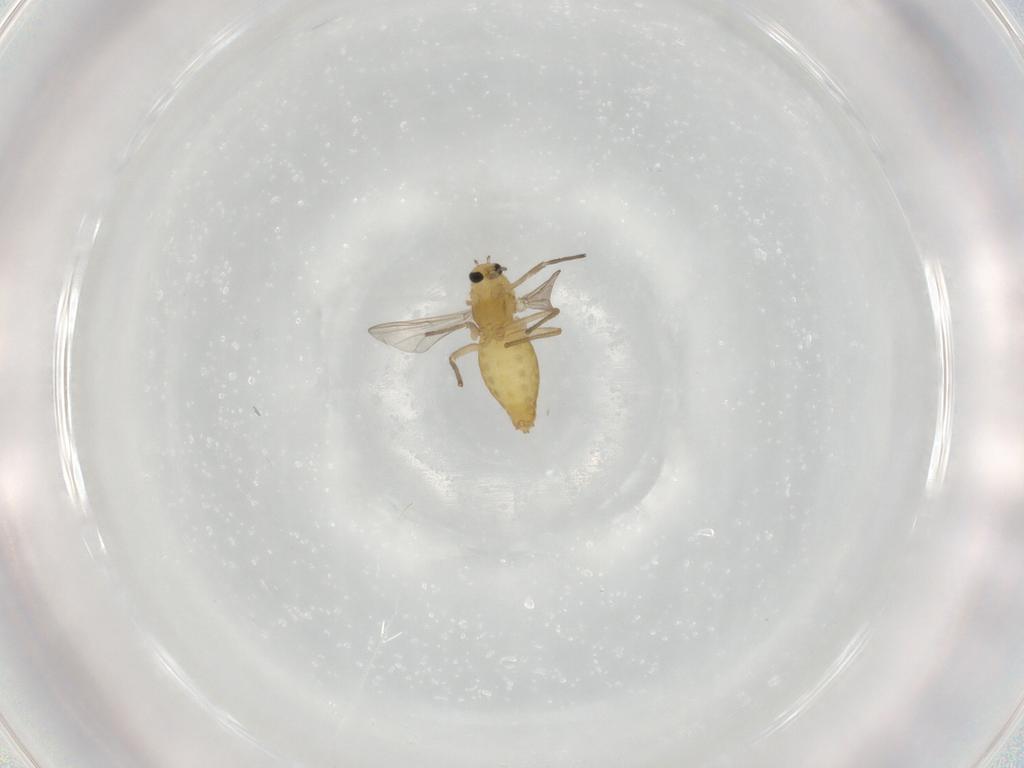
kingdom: Animalia
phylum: Arthropoda
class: Insecta
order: Diptera
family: Chironomidae
